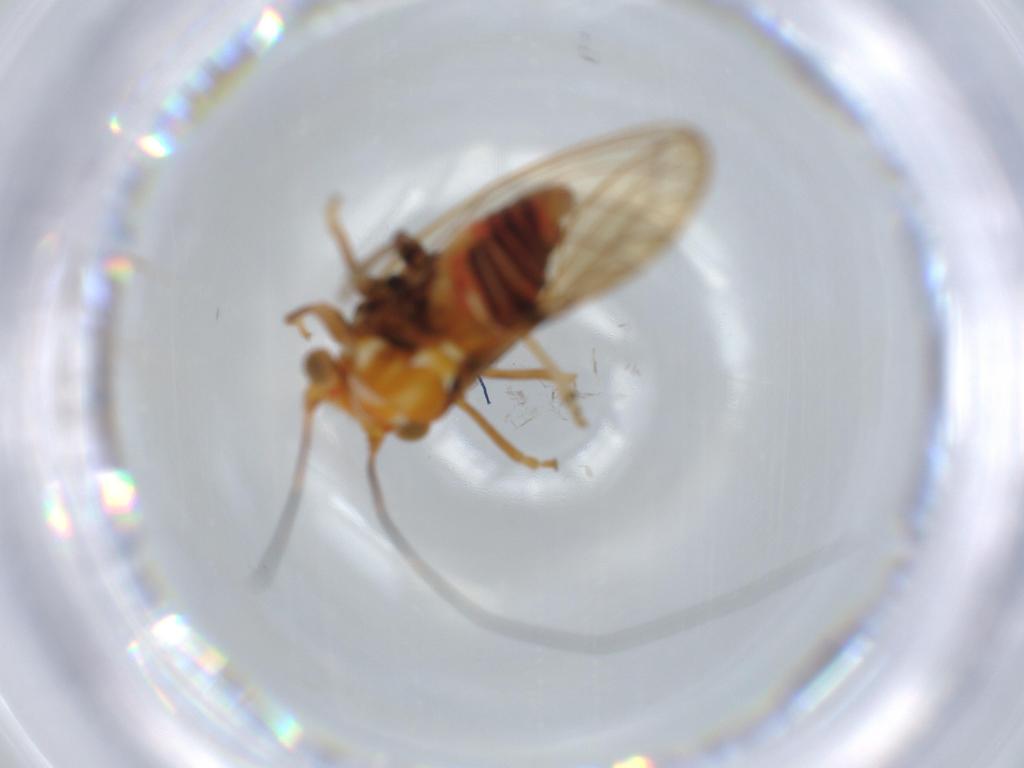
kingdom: Animalia
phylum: Arthropoda
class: Insecta
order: Hemiptera
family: Psyllidae
